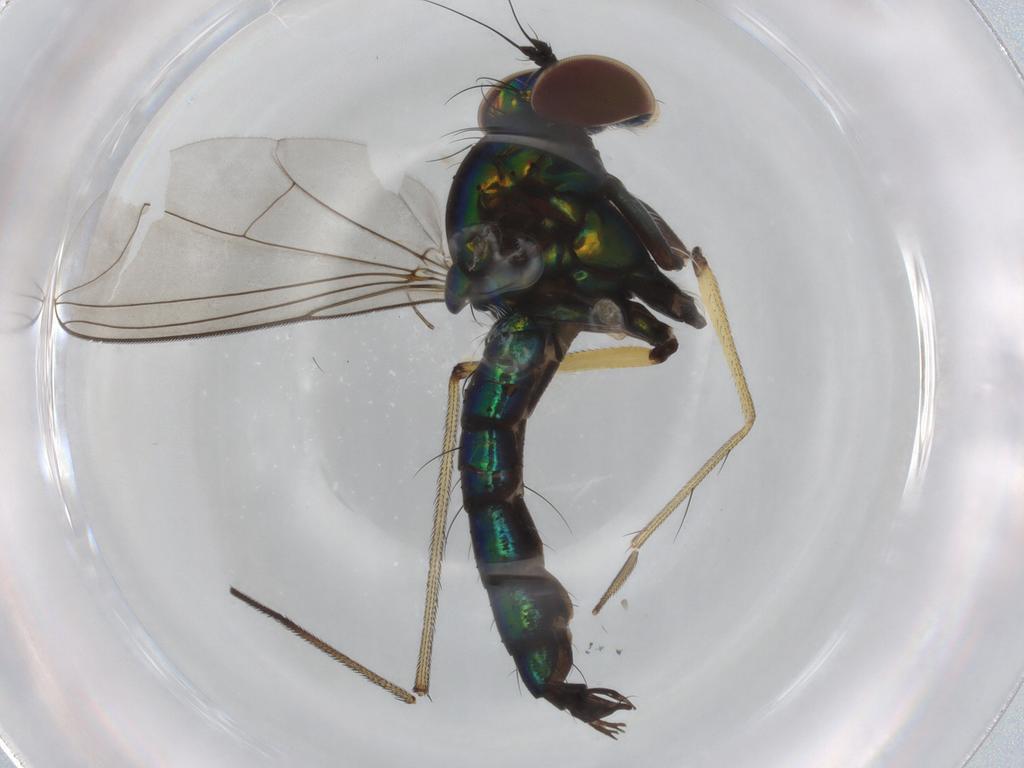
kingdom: Animalia
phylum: Arthropoda
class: Insecta
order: Diptera
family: Dolichopodidae
